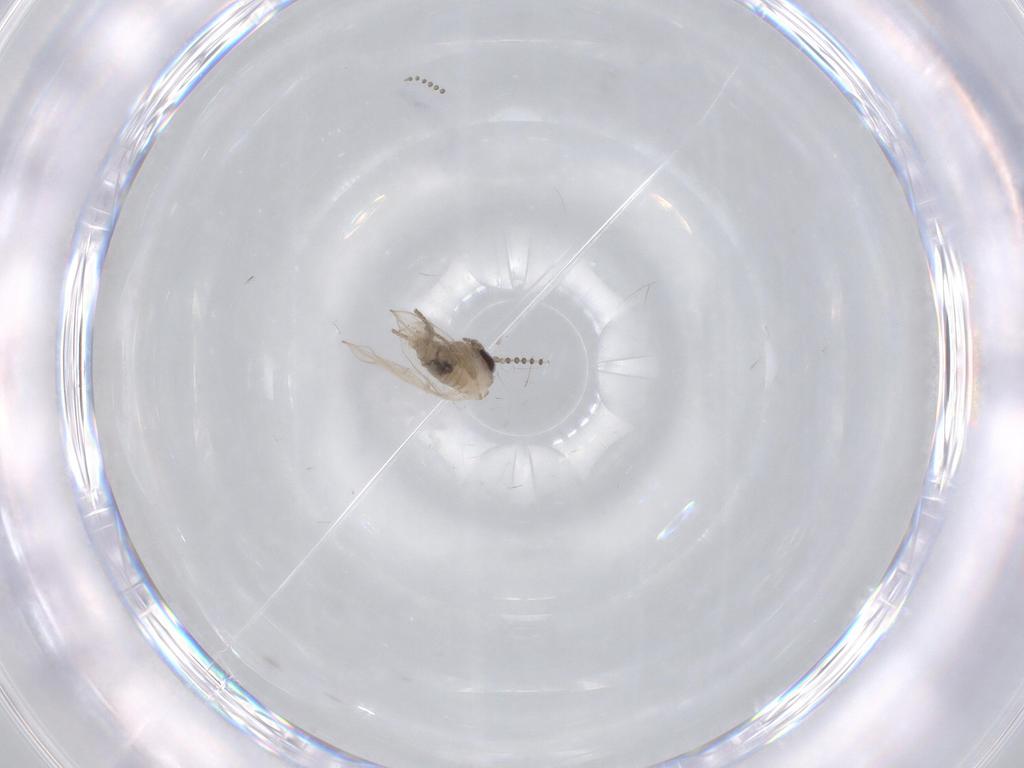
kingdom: Animalia
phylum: Arthropoda
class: Insecta
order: Diptera
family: Psychodidae
